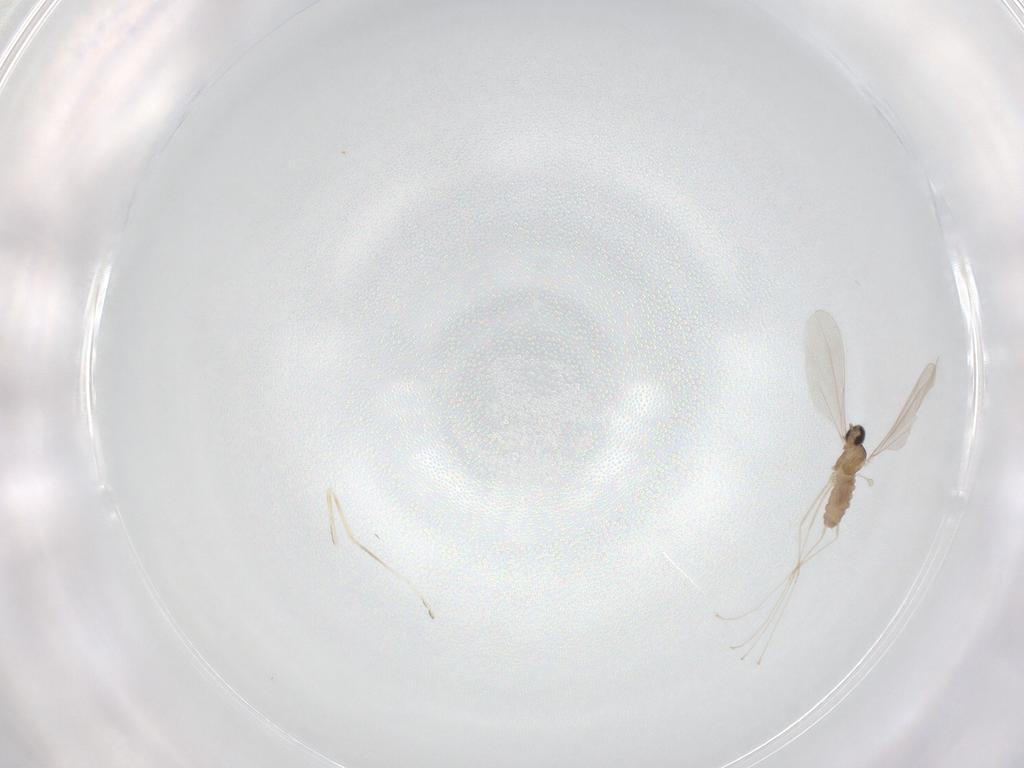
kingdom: Animalia
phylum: Arthropoda
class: Insecta
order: Diptera
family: Cecidomyiidae
